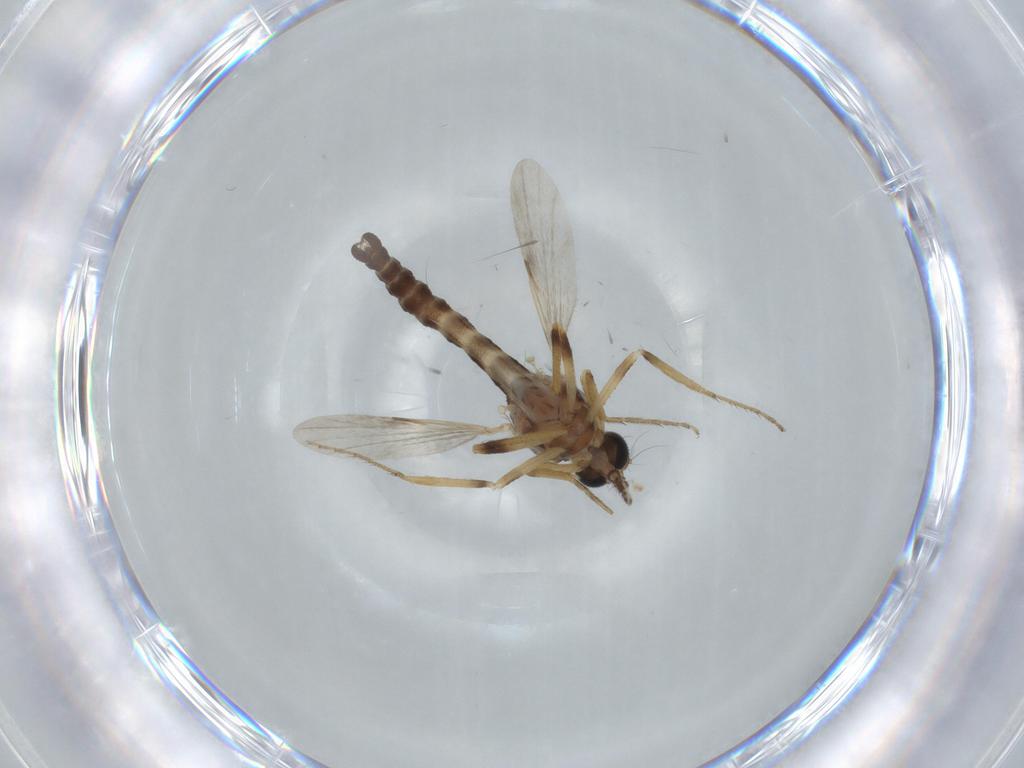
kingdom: Animalia
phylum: Arthropoda
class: Insecta
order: Diptera
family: Ceratopogonidae
